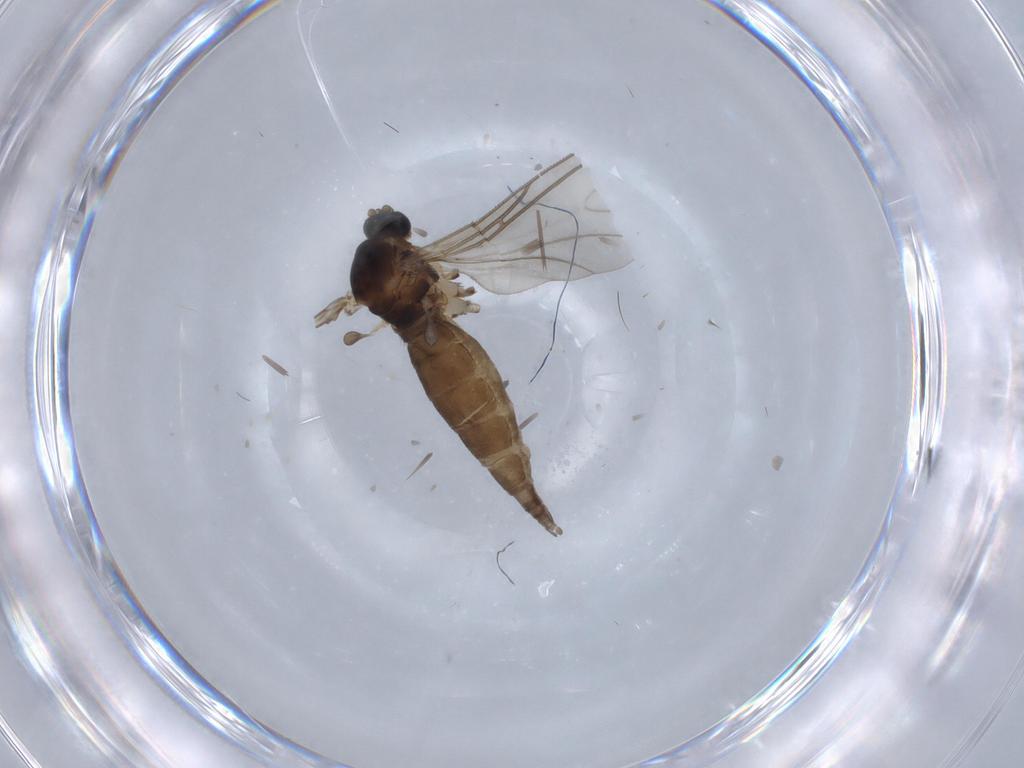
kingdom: Animalia
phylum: Arthropoda
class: Insecta
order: Diptera
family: Sciaridae
